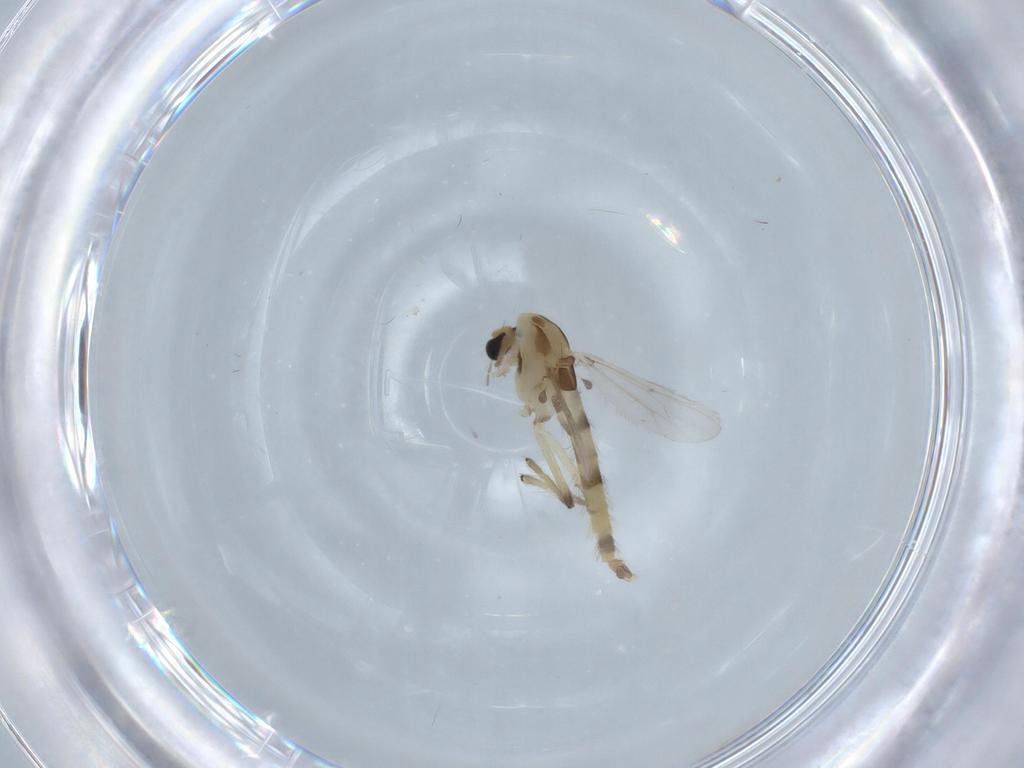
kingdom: Animalia
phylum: Arthropoda
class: Insecta
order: Diptera
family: Chironomidae
